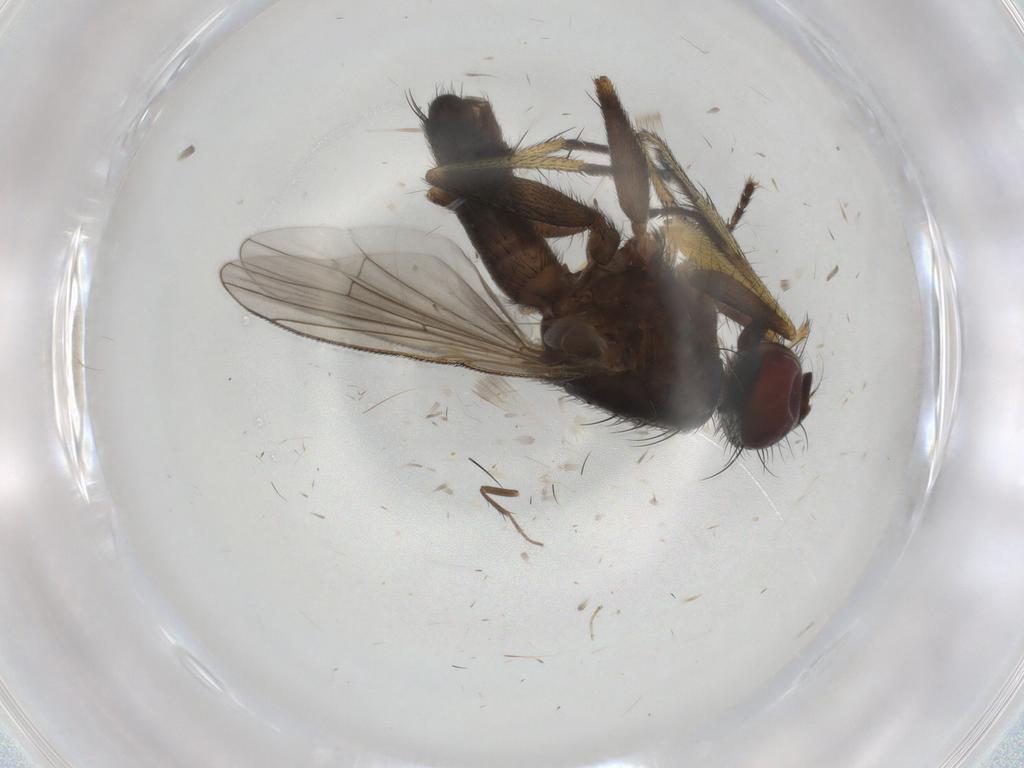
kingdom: Animalia
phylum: Arthropoda
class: Insecta
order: Diptera
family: Muscidae
